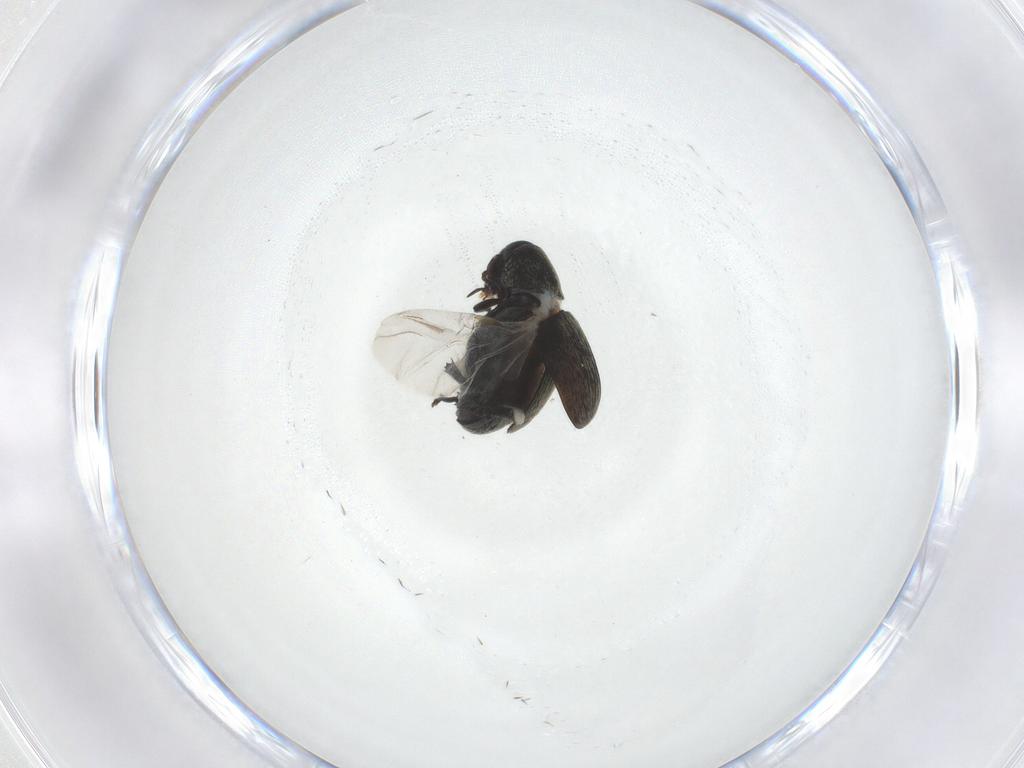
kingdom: Animalia
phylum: Arthropoda
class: Insecta
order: Coleoptera
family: Chrysomelidae
